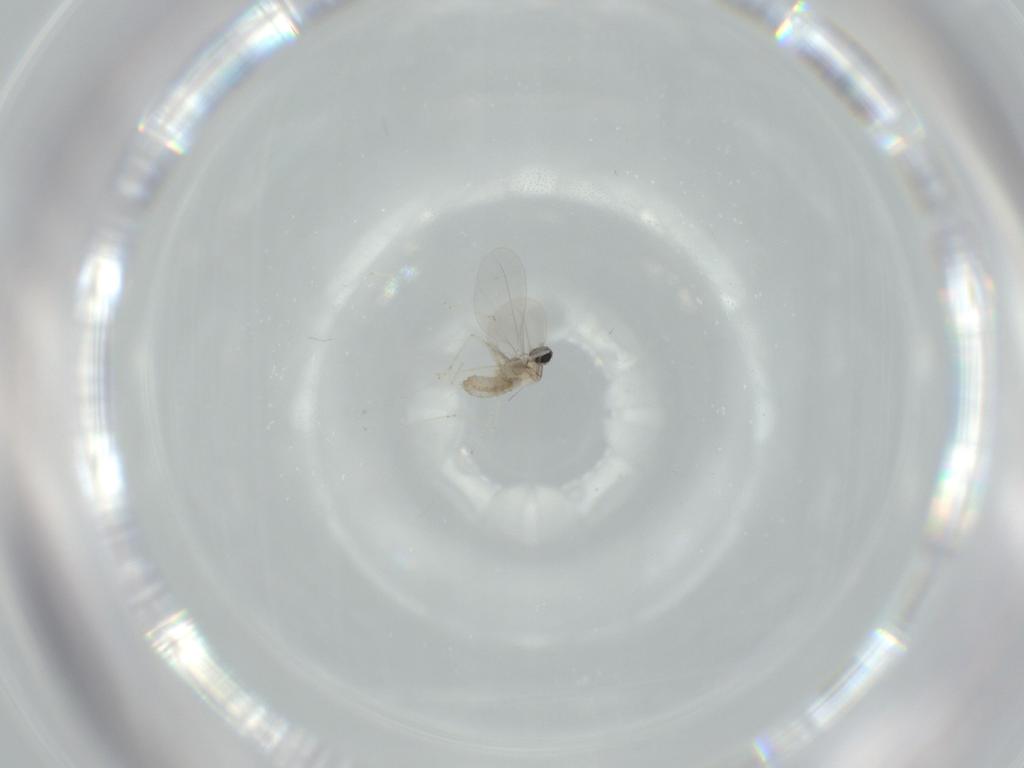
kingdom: Animalia
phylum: Arthropoda
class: Insecta
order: Diptera
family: Cecidomyiidae
